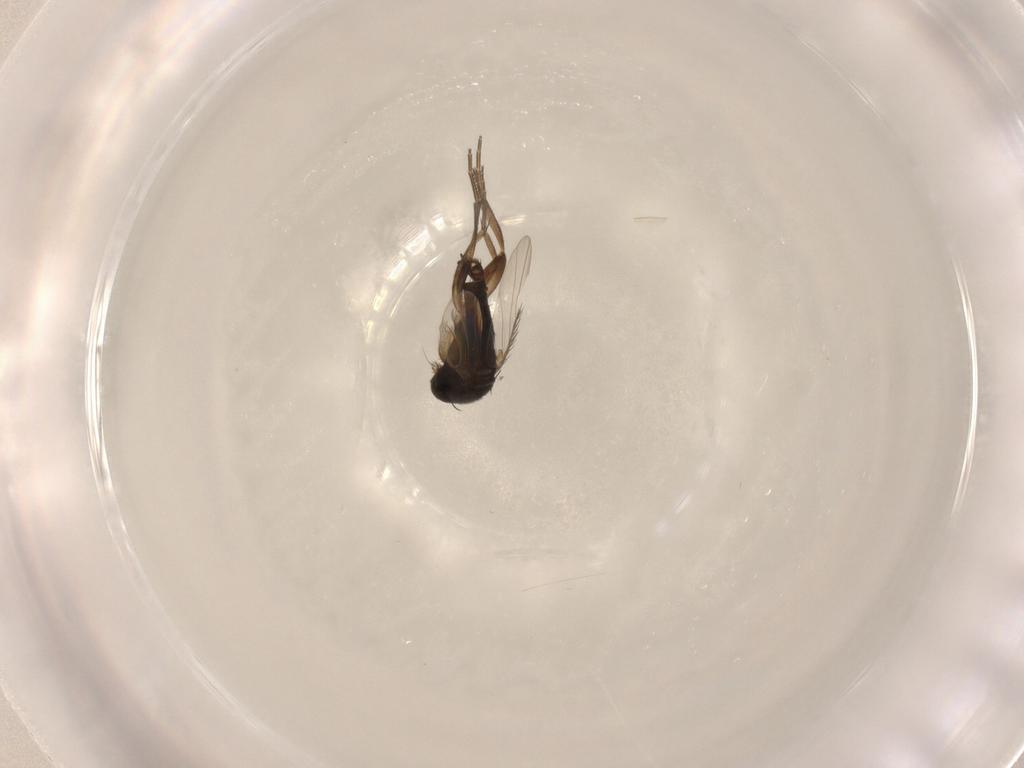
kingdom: Animalia
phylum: Arthropoda
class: Insecta
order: Diptera
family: Phoridae
